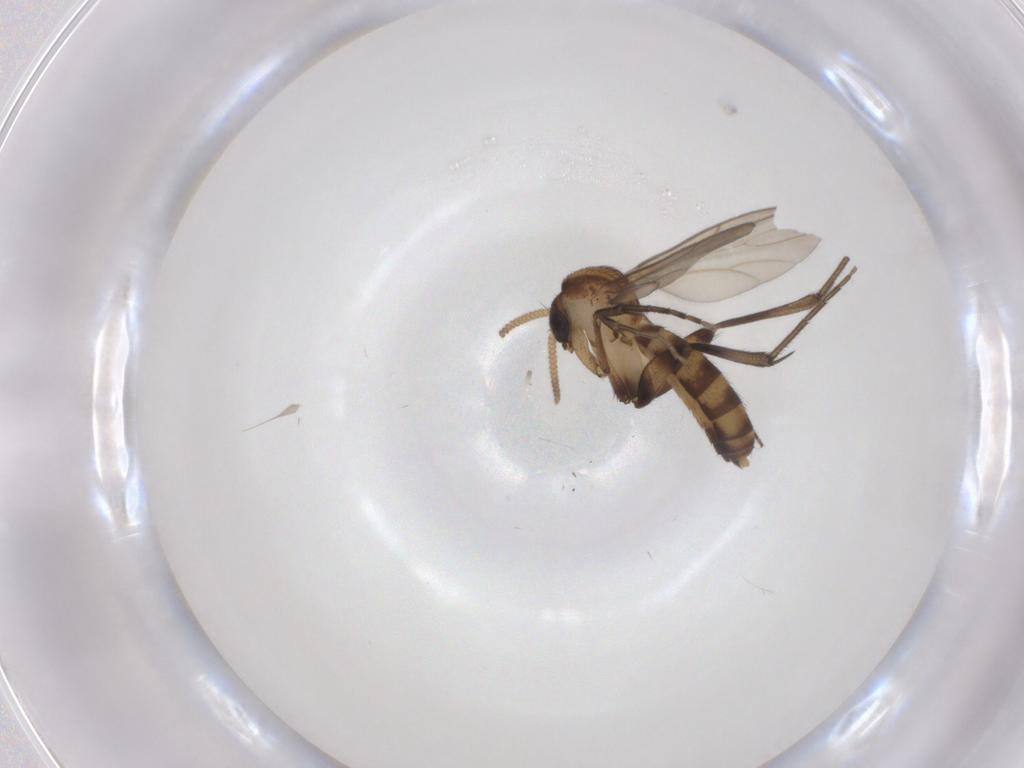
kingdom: Animalia
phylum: Arthropoda
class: Insecta
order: Diptera
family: Mycetophilidae
